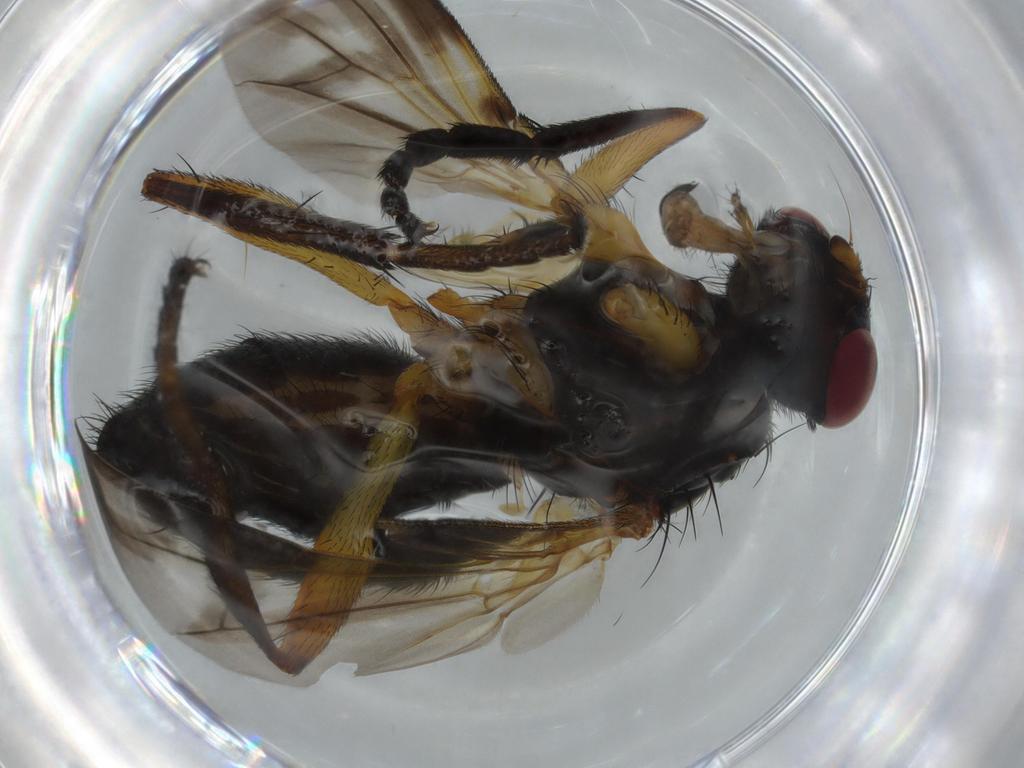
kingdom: Animalia
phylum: Arthropoda
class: Insecta
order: Diptera
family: Calliphoridae
